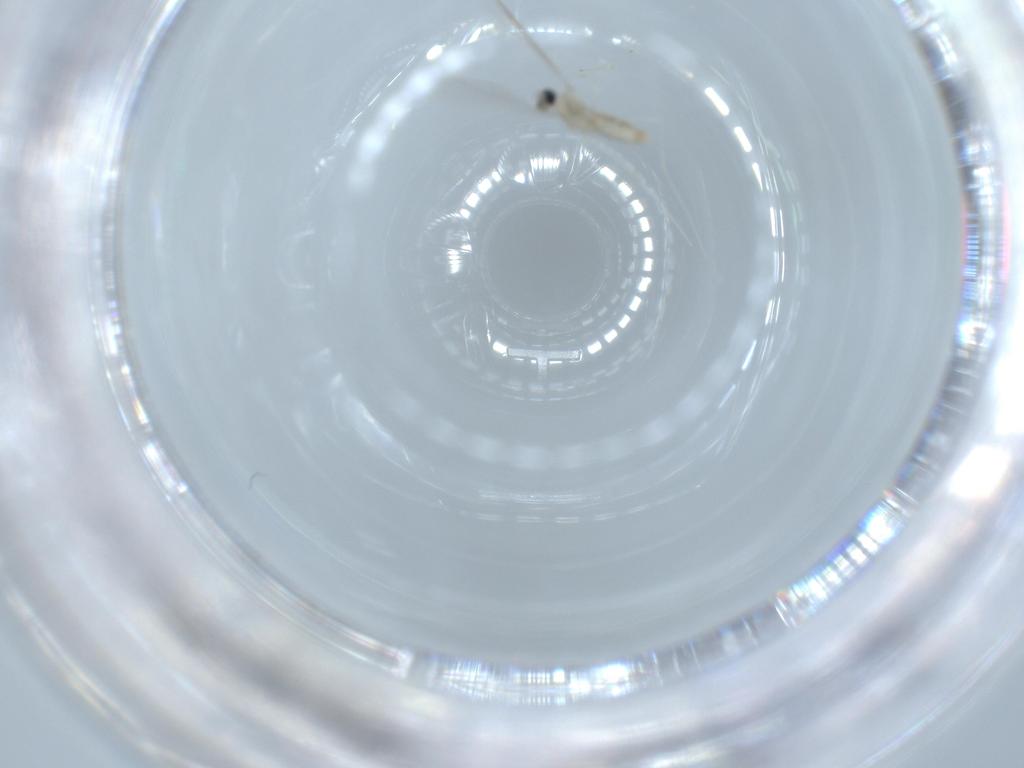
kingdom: Animalia
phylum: Arthropoda
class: Insecta
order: Diptera
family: Cecidomyiidae
